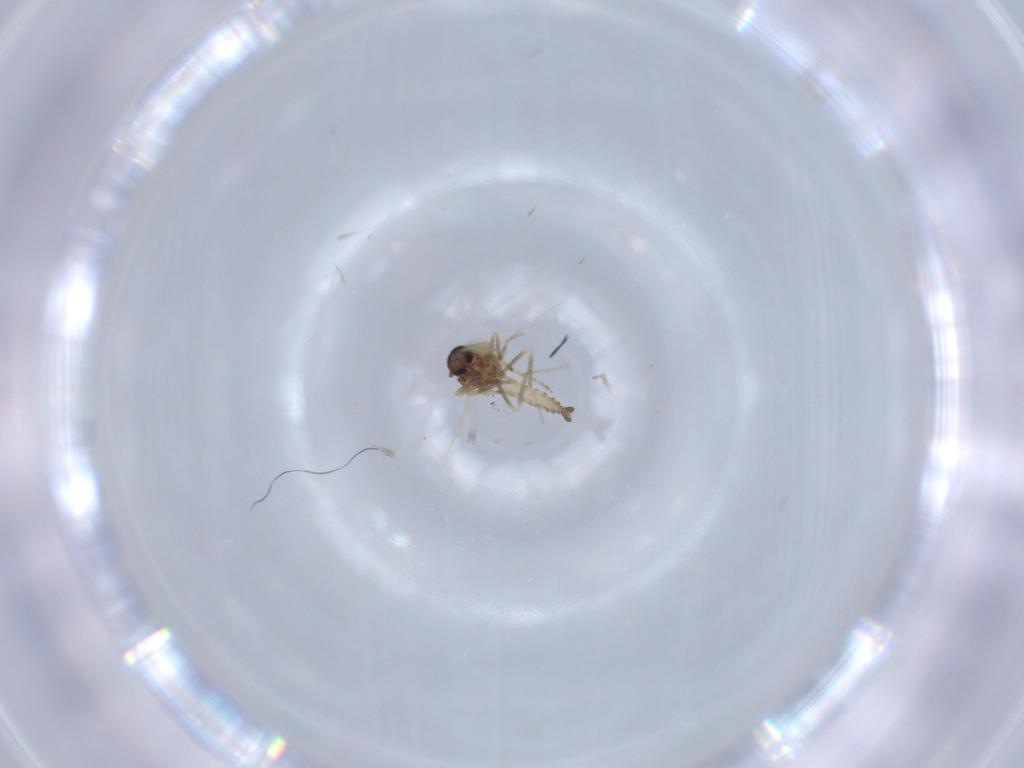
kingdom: Animalia
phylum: Arthropoda
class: Insecta
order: Diptera
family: Ceratopogonidae
